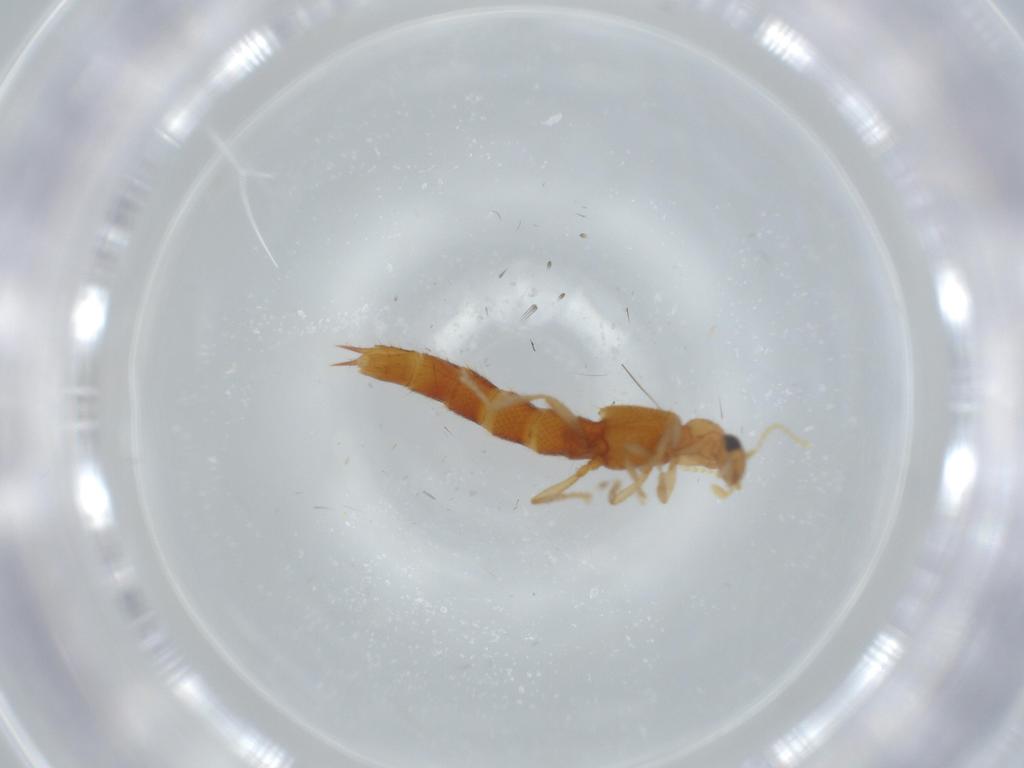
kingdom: Animalia
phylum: Arthropoda
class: Insecta
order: Coleoptera
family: Staphylinidae
